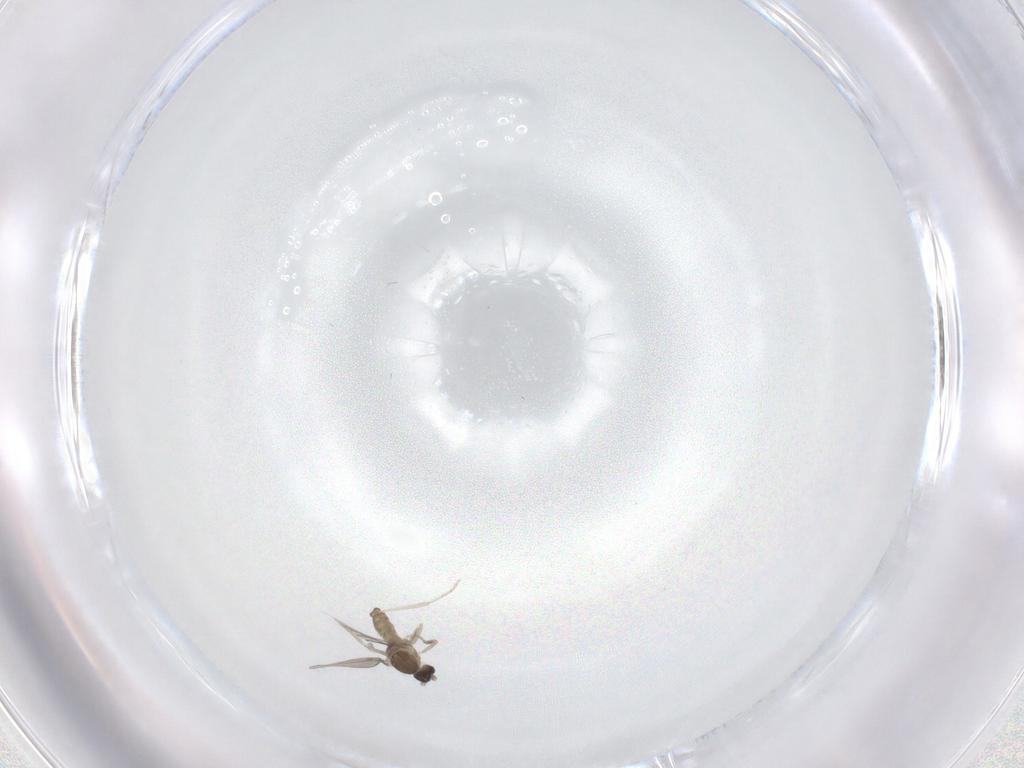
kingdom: Animalia
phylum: Arthropoda
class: Insecta
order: Diptera
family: Cecidomyiidae
